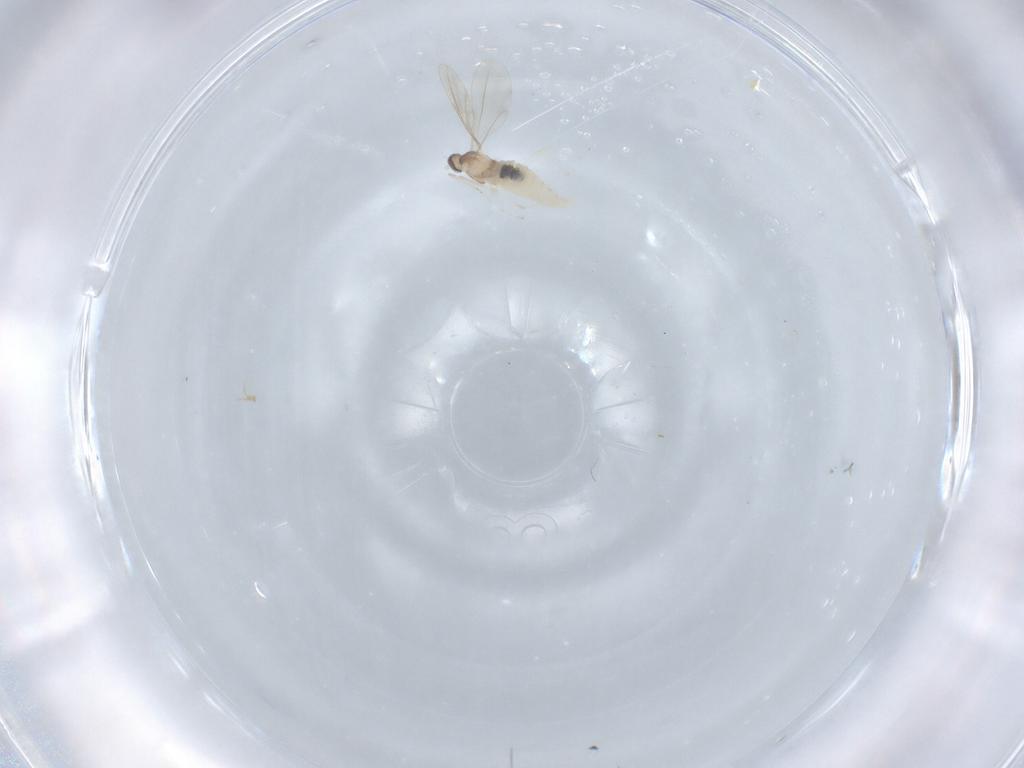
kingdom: Animalia
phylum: Arthropoda
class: Insecta
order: Diptera
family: Cecidomyiidae
